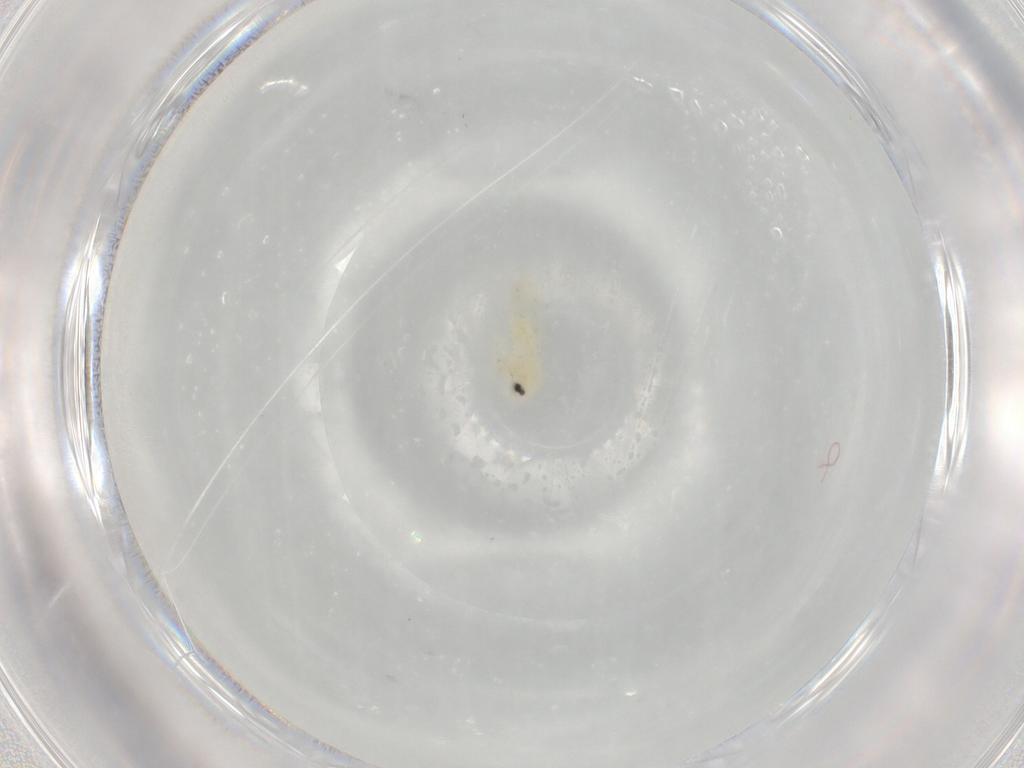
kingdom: Animalia
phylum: Arthropoda
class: Insecta
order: Hemiptera
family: Aleyrodidae
